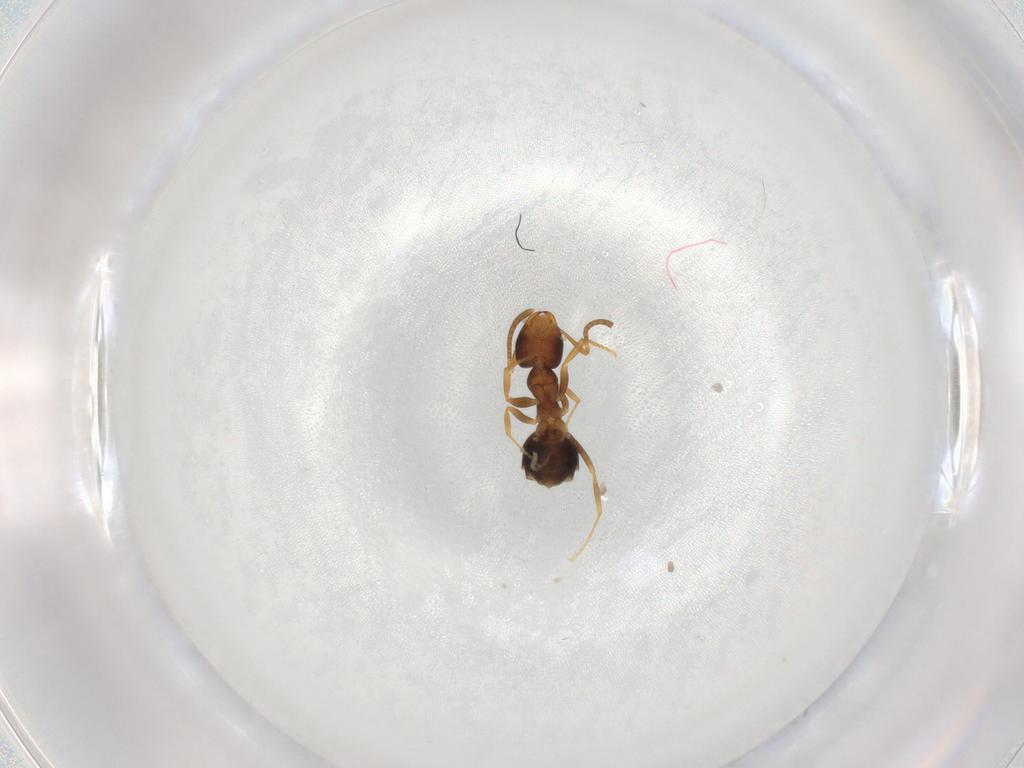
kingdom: Animalia
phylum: Arthropoda
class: Insecta
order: Hymenoptera
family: Formicidae
